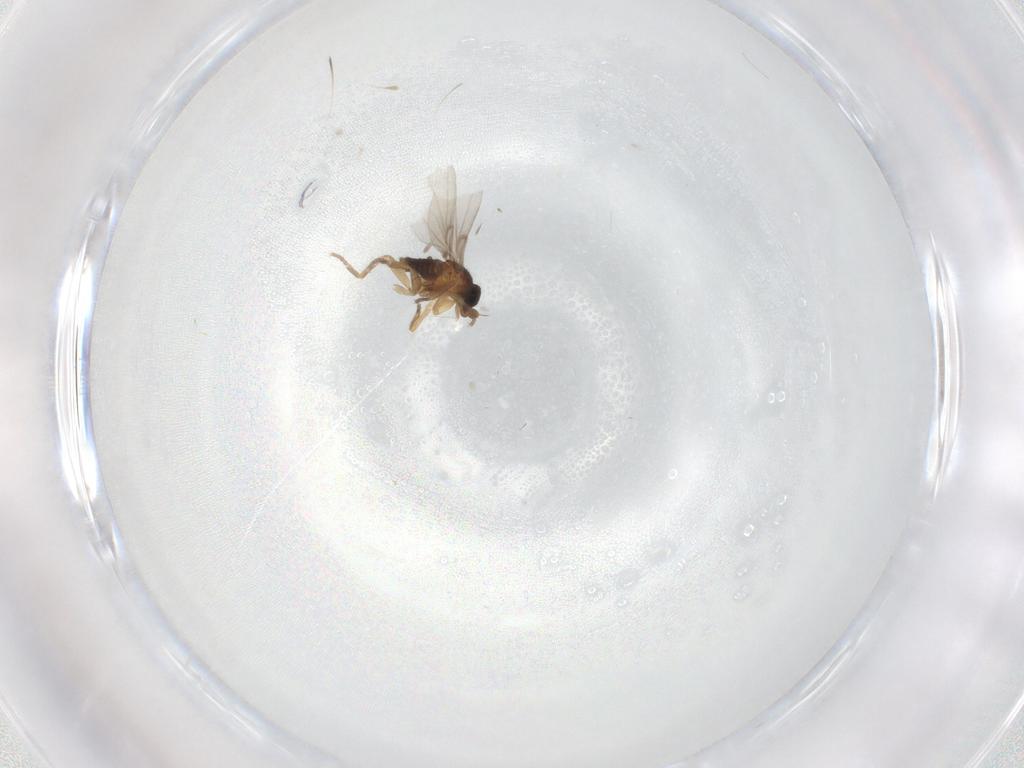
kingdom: Animalia
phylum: Arthropoda
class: Insecta
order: Diptera
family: Phoridae
